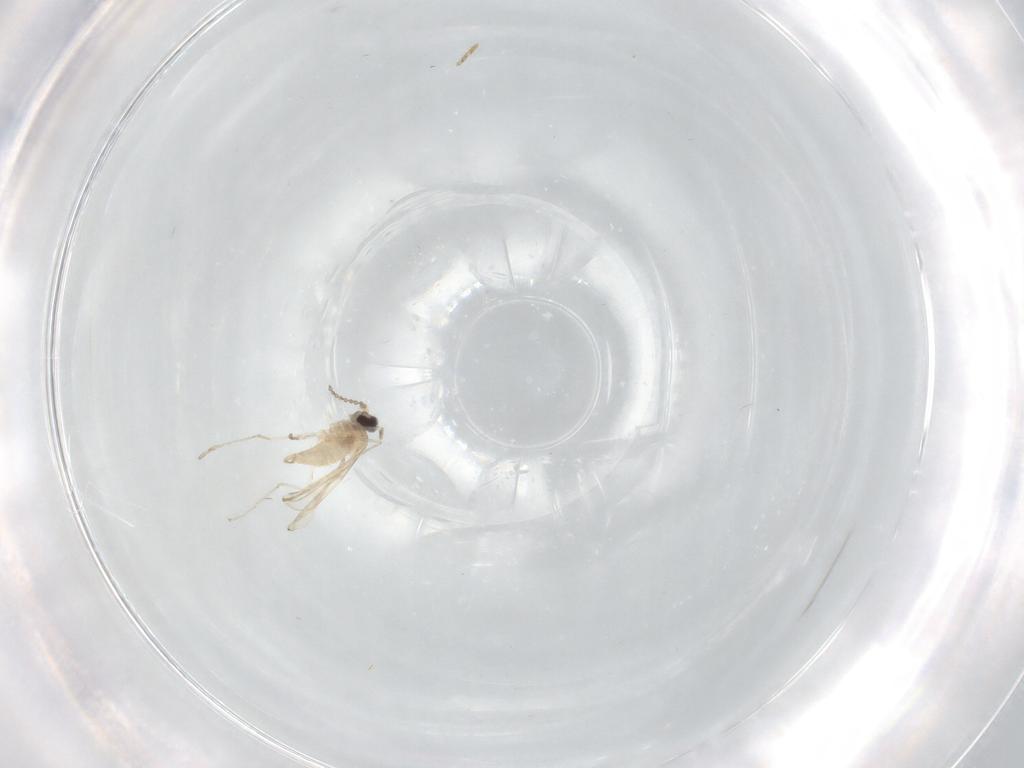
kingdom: Animalia
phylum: Arthropoda
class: Insecta
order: Diptera
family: Ceratopogonidae
